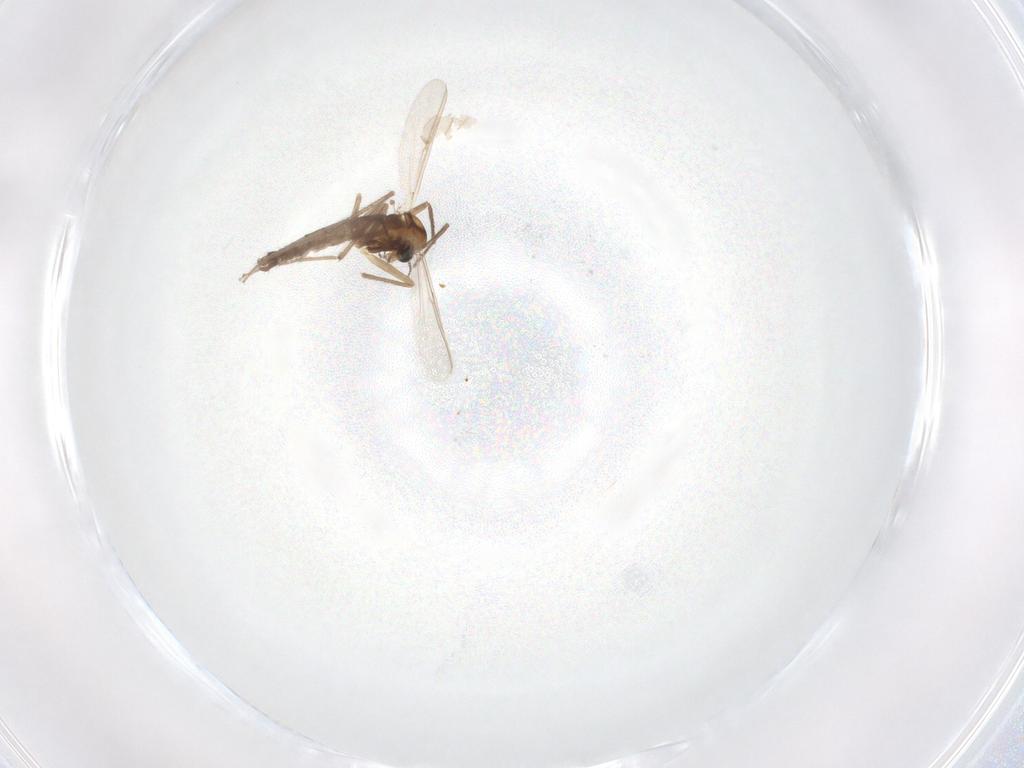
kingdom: Animalia
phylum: Arthropoda
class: Insecta
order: Diptera
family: Chironomidae
